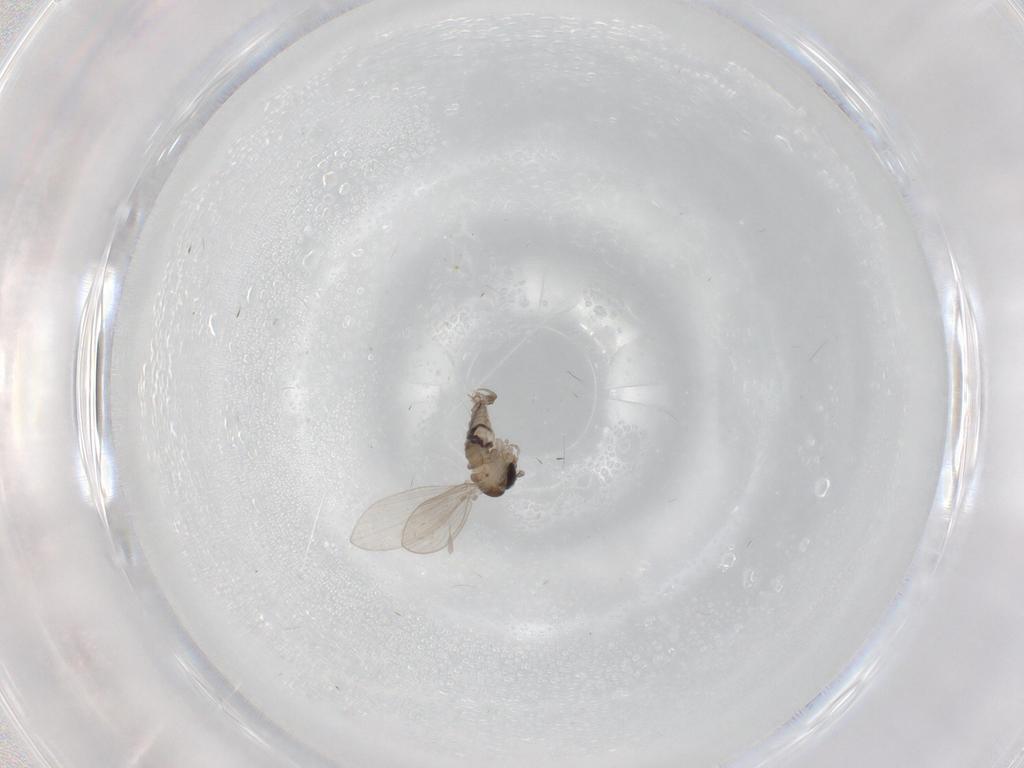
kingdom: Animalia
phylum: Arthropoda
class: Insecta
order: Diptera
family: Psychodidae
